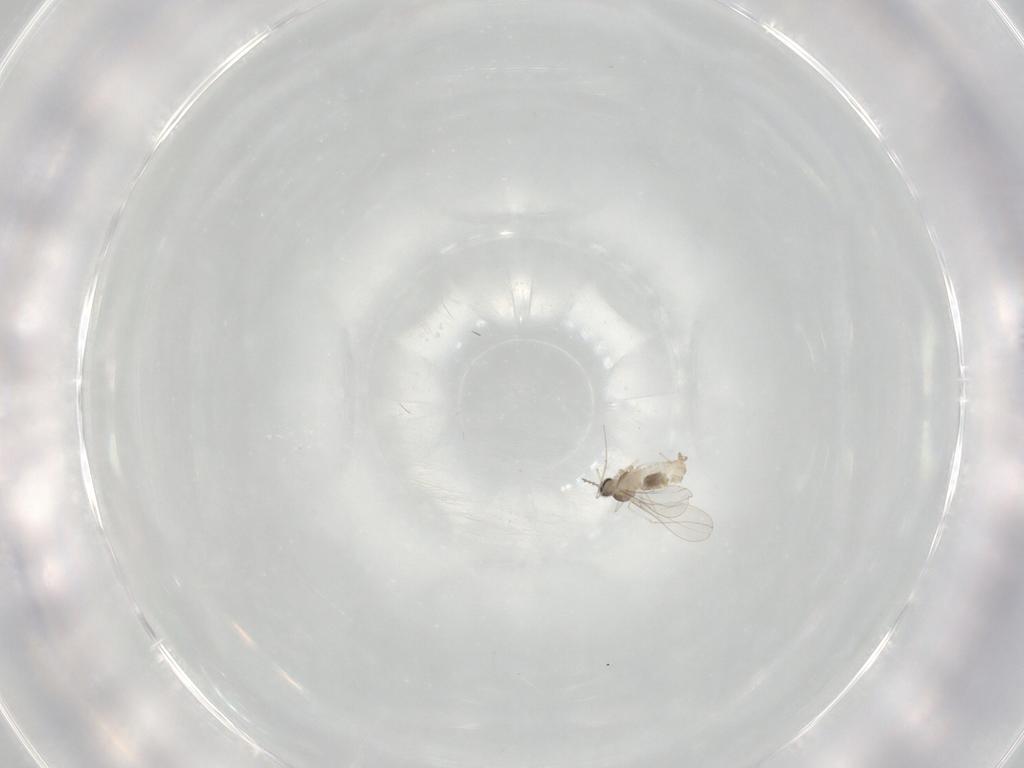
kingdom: Animalia
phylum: Arthropoda
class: Insecta
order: Diptera
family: Cecidomyiidae
